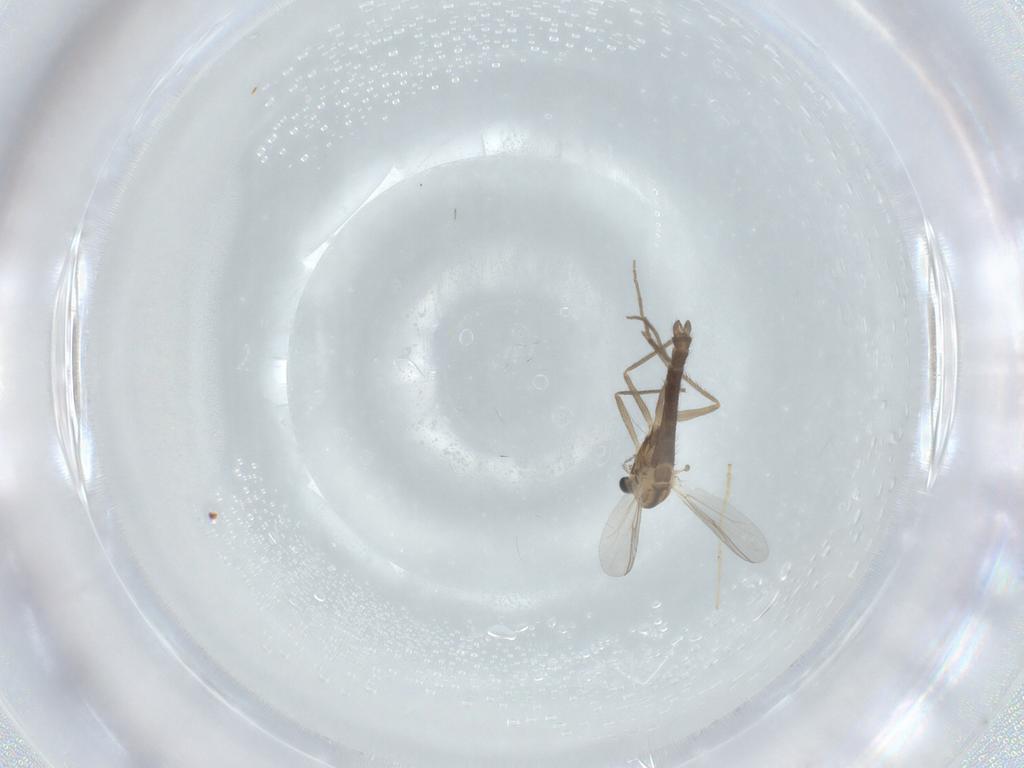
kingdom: Animalia
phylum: Arthropoda
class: Insecta
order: Diptera
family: Chironomidae
